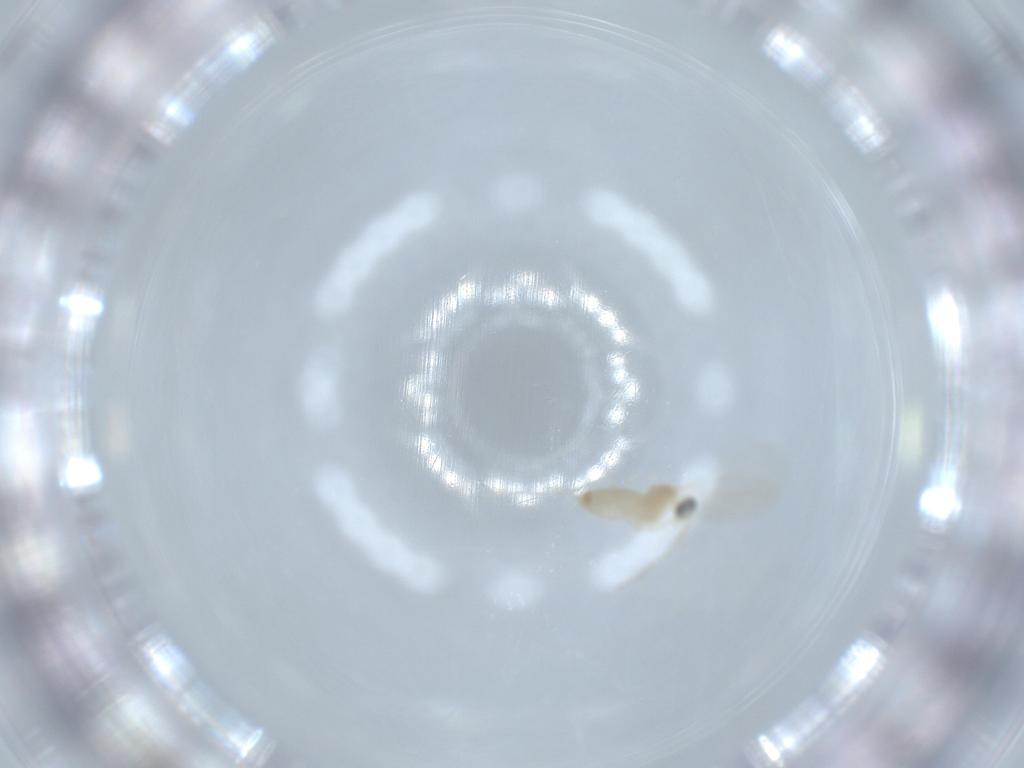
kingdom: Animalia
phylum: Arthropoda
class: Insecta
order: Diptera
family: Cecidomyiidae
